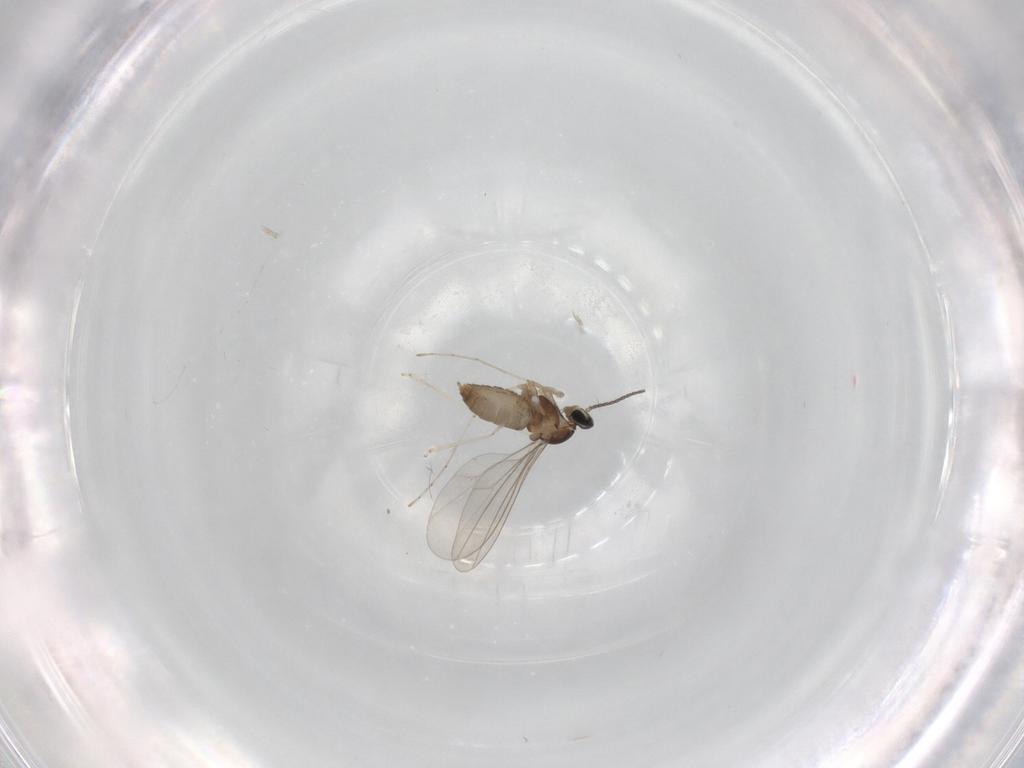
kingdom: Animalia
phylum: Arthropoda
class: Insecta
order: Diptera
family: Cecidomyiidae
